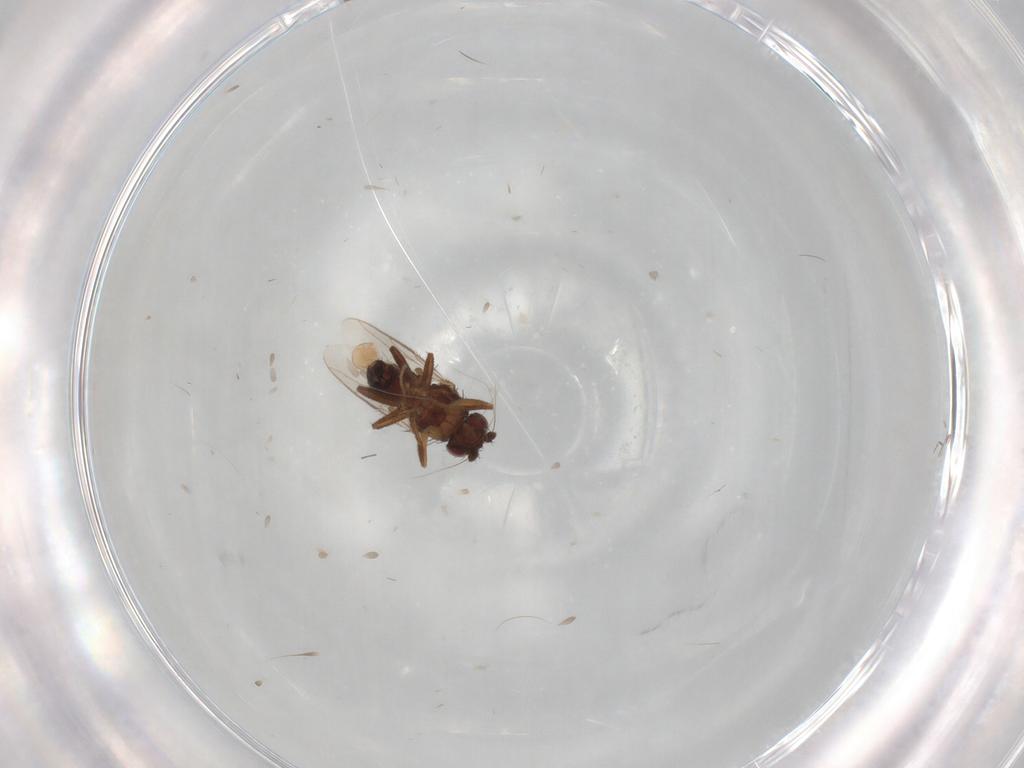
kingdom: Animalia
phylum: Arthropoda
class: Insecta
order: Diptera
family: Sphaeroceridae
